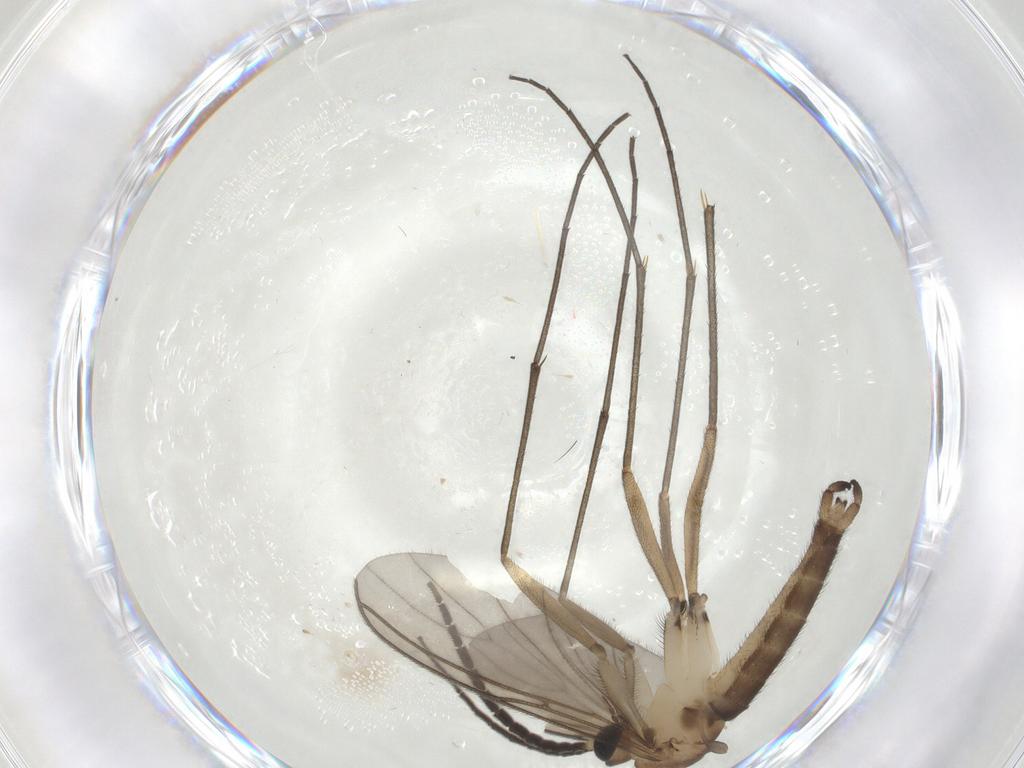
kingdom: Animalia
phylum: Arthropoda
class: Insecta
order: Diptera
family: Sciaridae
